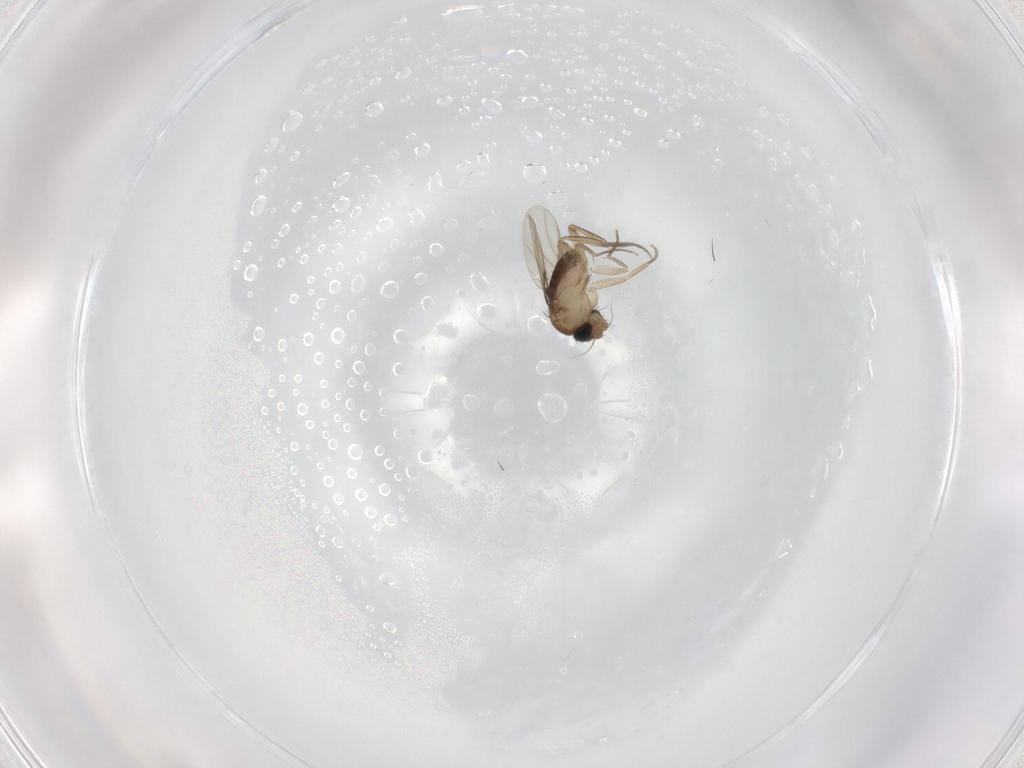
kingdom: Animalia
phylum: Arthropoda
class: Insecta
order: Diptera
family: Phoridae
